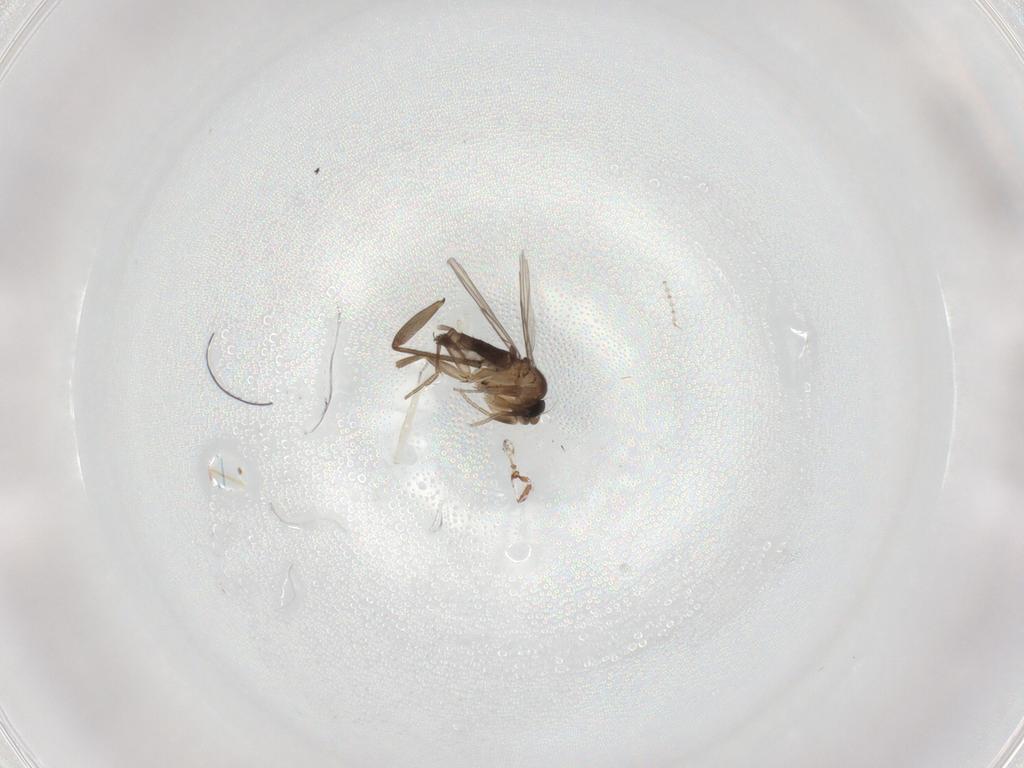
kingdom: Animalia
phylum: Arthropoda
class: Insecta
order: Diptera
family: Phoridae
